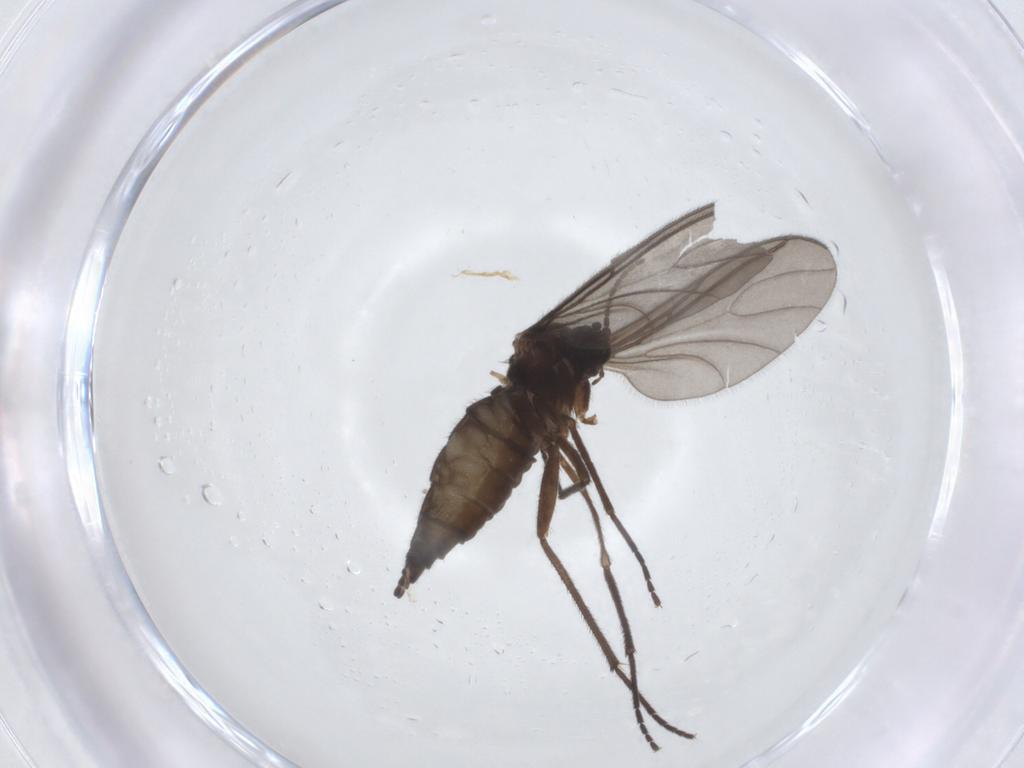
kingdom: Animalia
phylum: Arthropoda
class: Insecta
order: Diptera
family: Sciaridae
